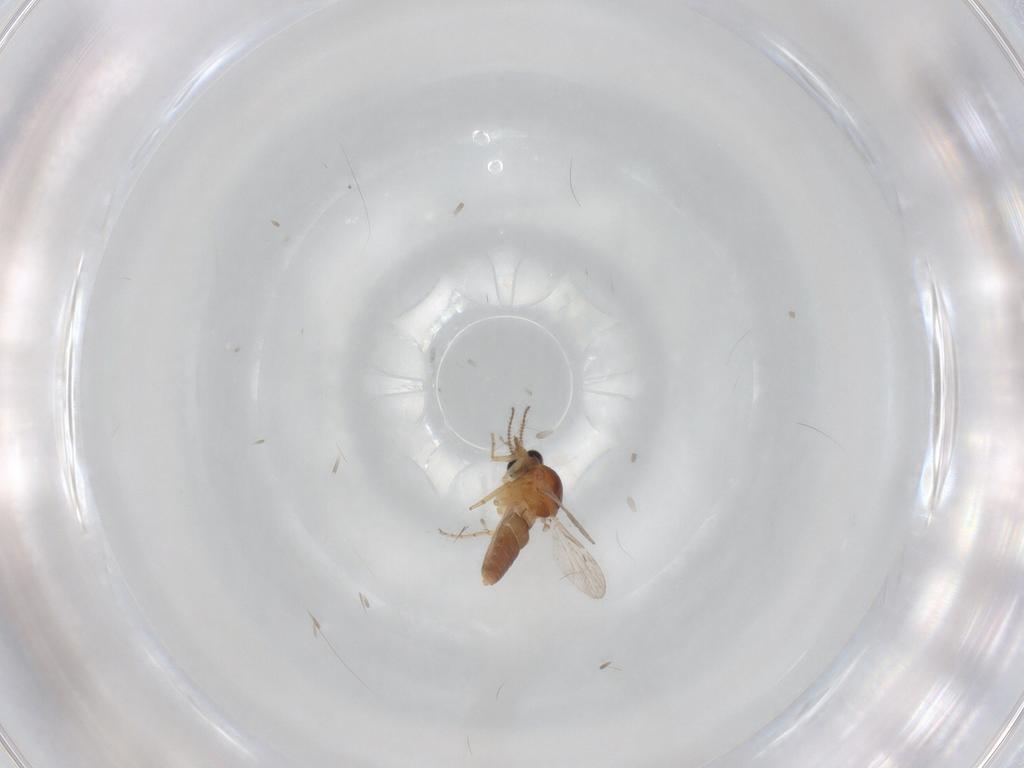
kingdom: Animalia
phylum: Arthropoda
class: Insecta
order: Diptera
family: Ceratopogonidae
